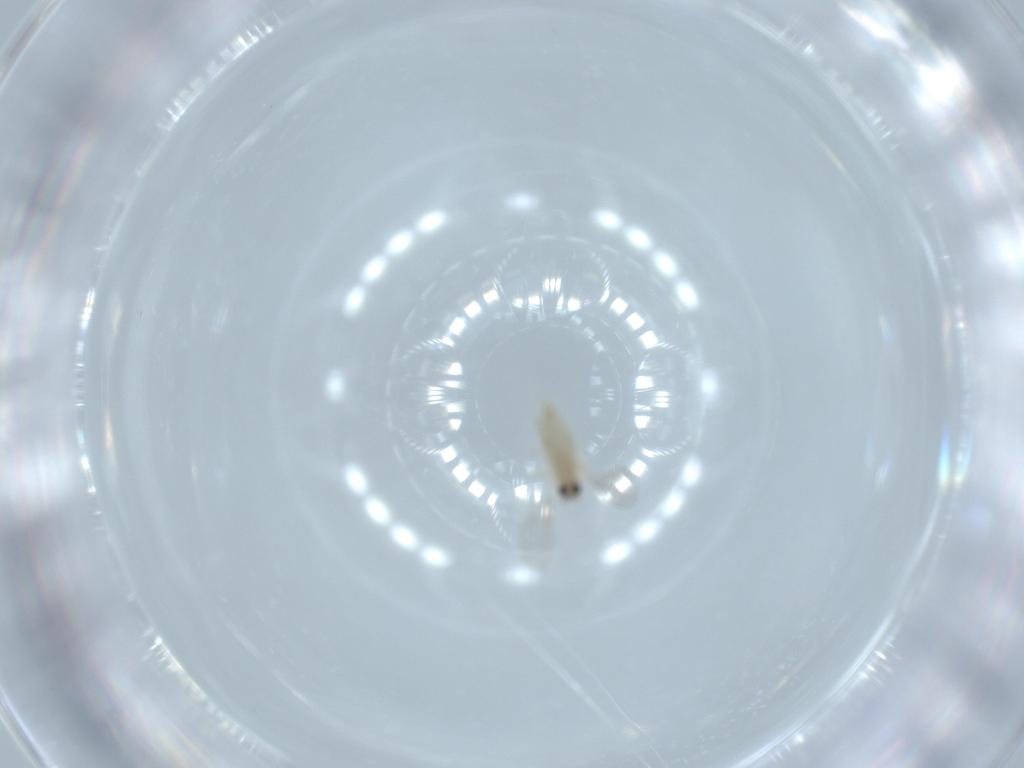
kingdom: Animalia
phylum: Arthropoda
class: Insecta
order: Diptera
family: Cecidomyiidae
